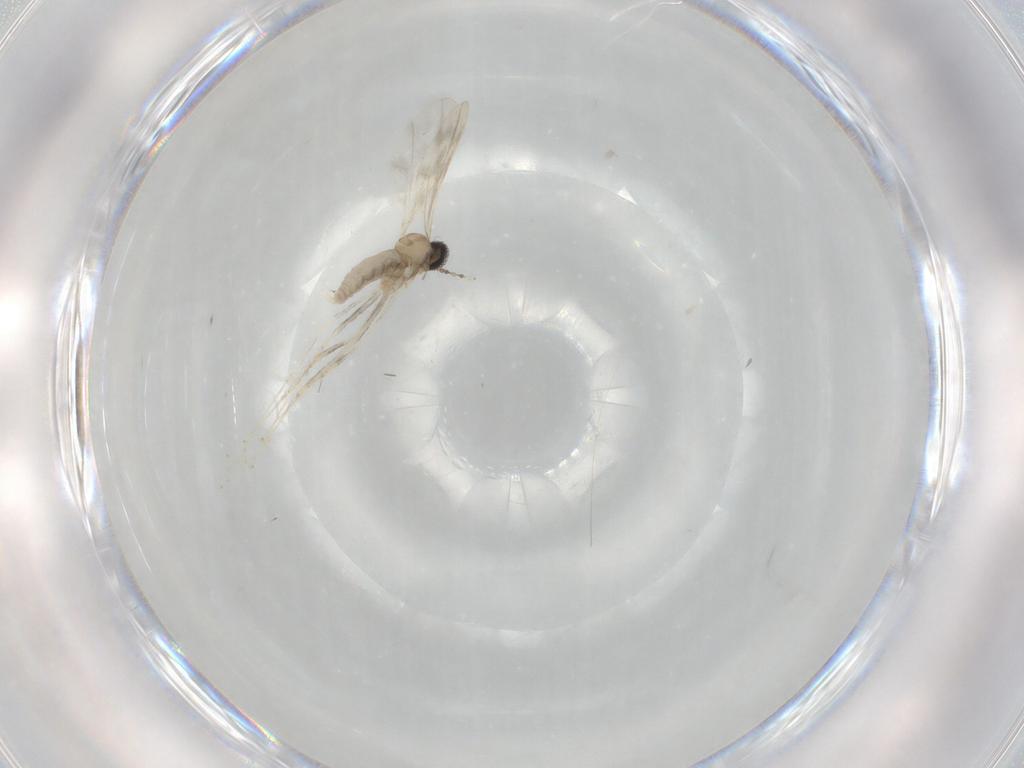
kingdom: Animalia
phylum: Arthropoda
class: Insecta
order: Diptera
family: Cecidomyiidae
